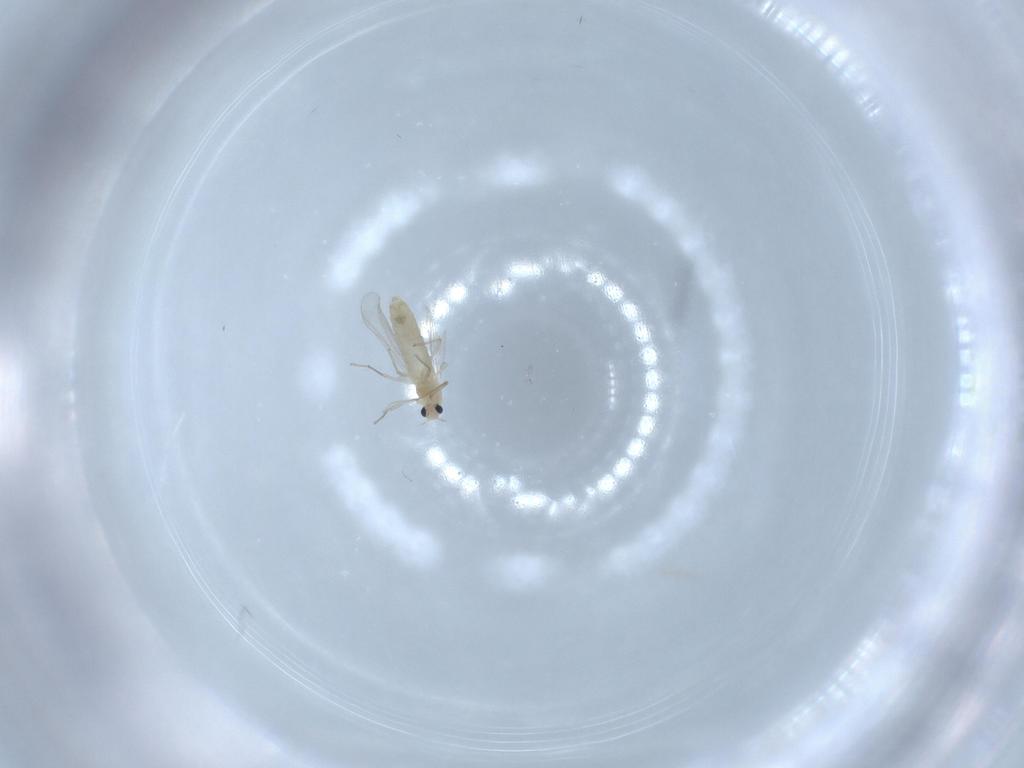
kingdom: Animalia
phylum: Arthropoda
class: Insecta
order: Diptera
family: Chironomidae
